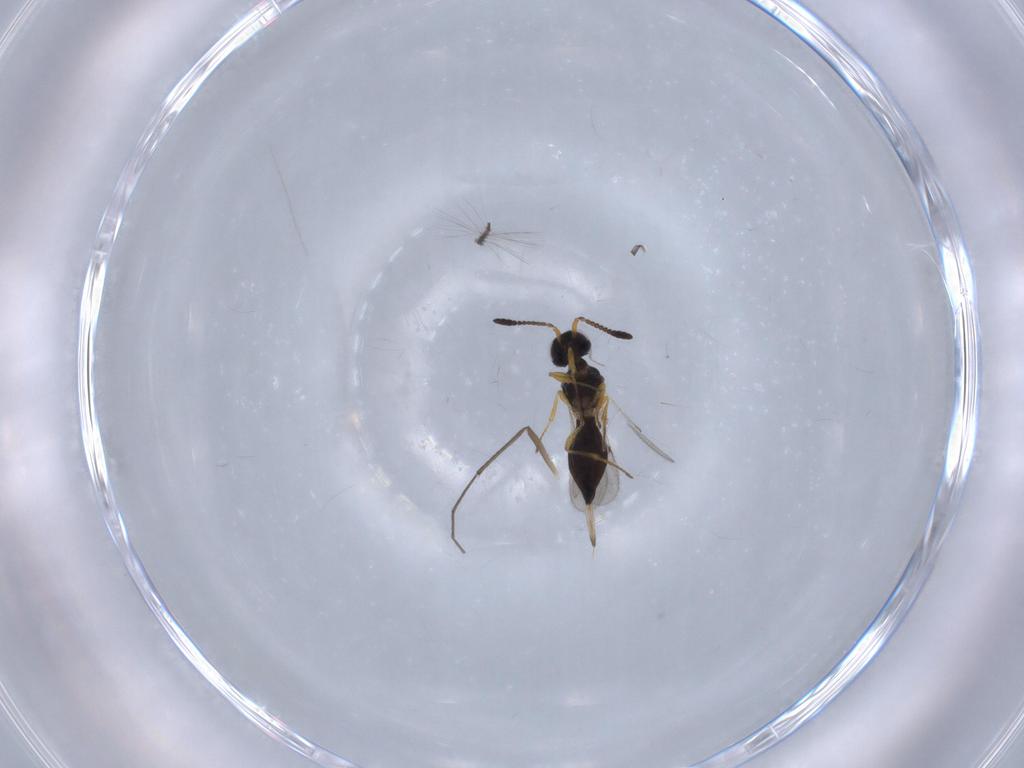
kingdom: Animalia
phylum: Arthropoda
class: Insecta
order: Hymenoptera
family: Scelionidae
